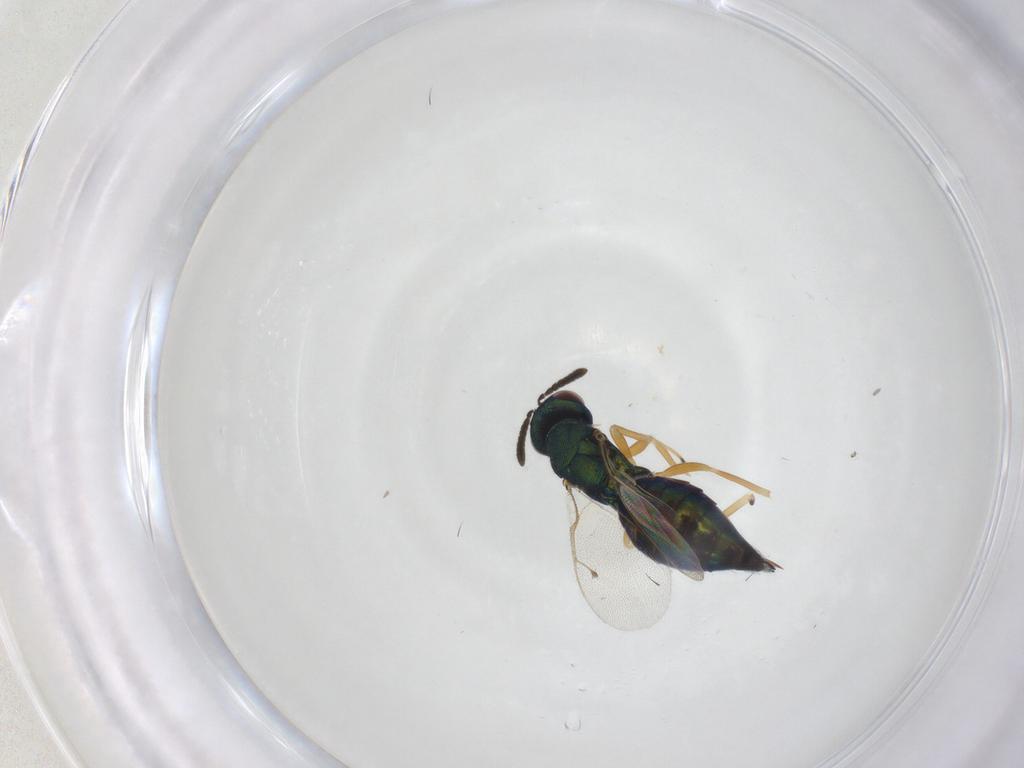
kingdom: Animalia
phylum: Arthropoda
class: Insecta
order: Hymenoptera
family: Pteromalidae
